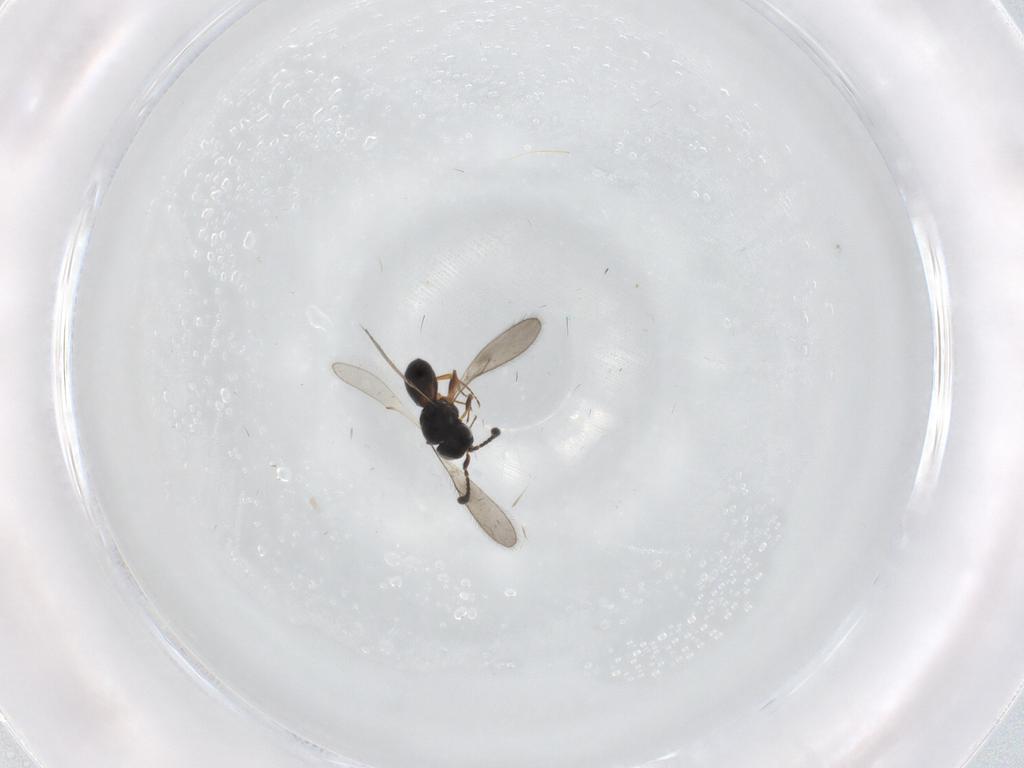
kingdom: Animalia
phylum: Arthropoda
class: Insecta
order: Hymenoptera
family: Scelionidae
